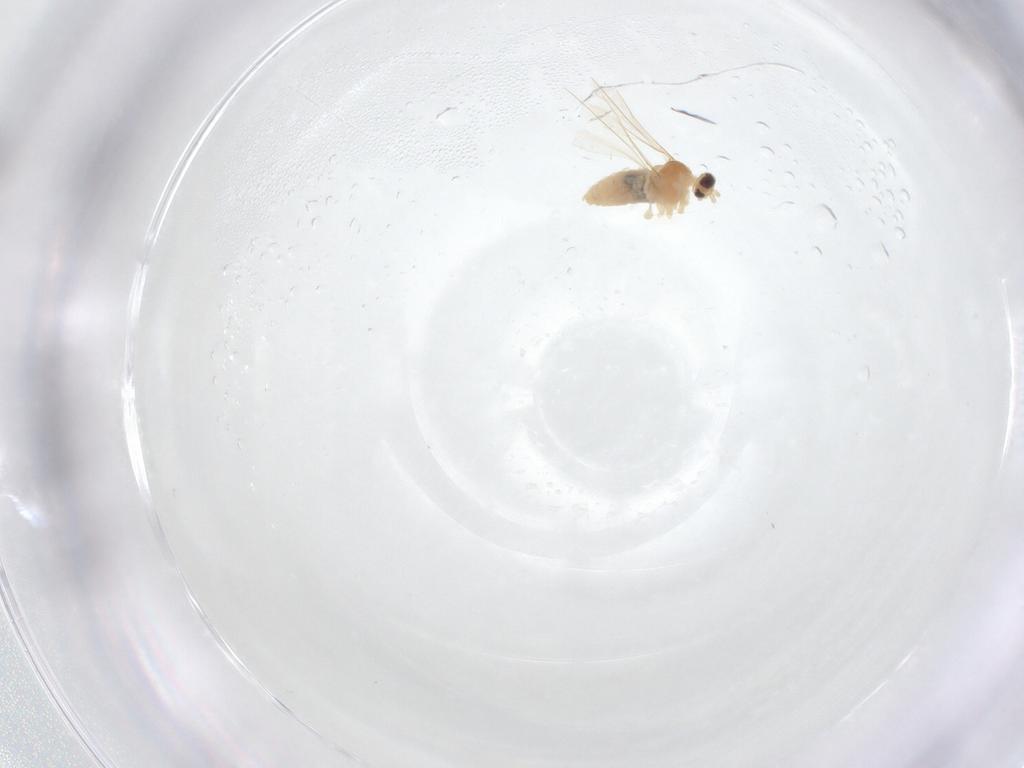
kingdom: Animalia
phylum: Arthropoda
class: Insecta
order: Diptera
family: Cecidomyiidae
